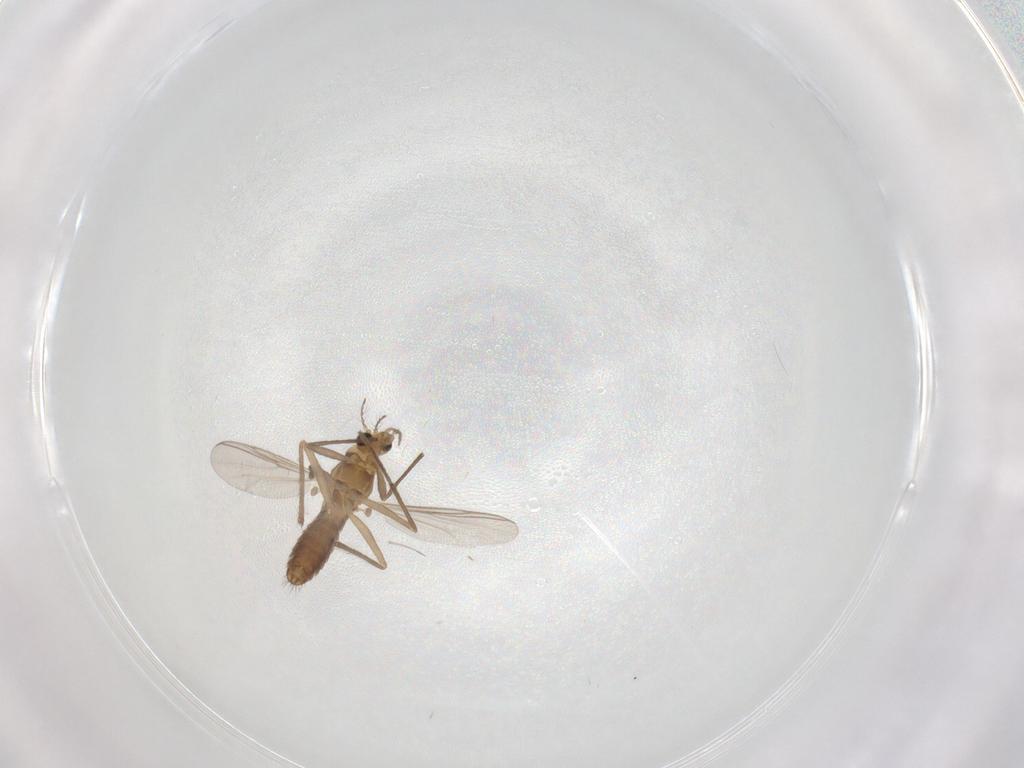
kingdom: Animalia
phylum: Arthropoda
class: Insecta
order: Diptera
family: Chironomidae
